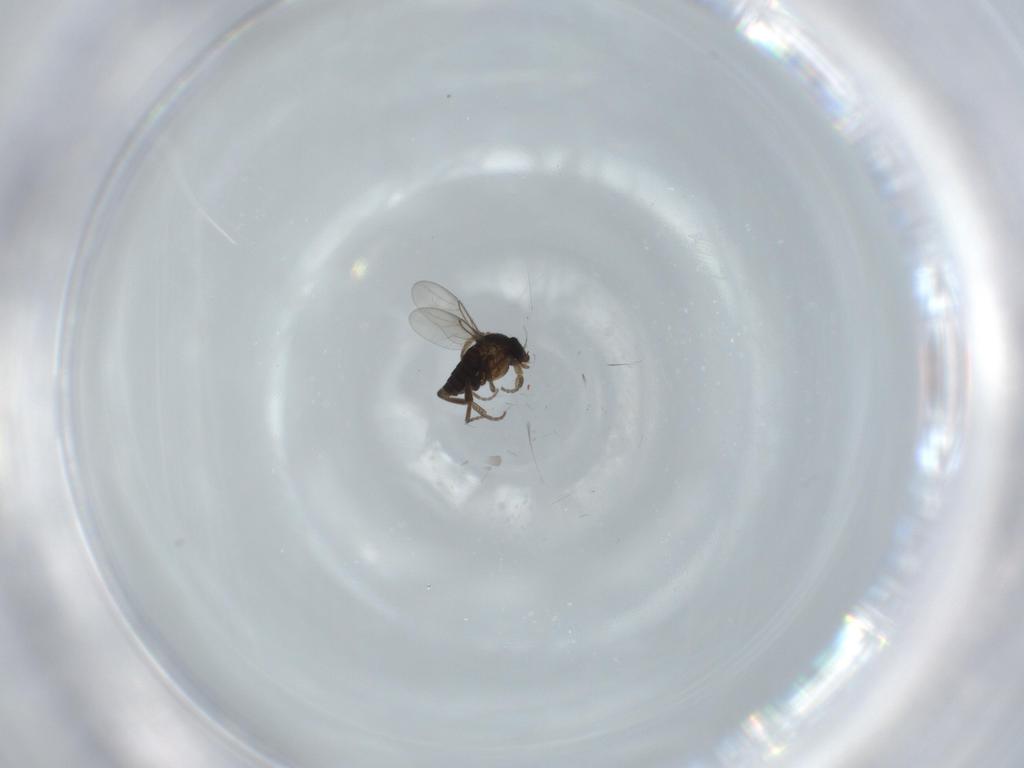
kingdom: Animalia
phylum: Arthropoda
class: Insecta
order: Diptera
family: Phoridae
